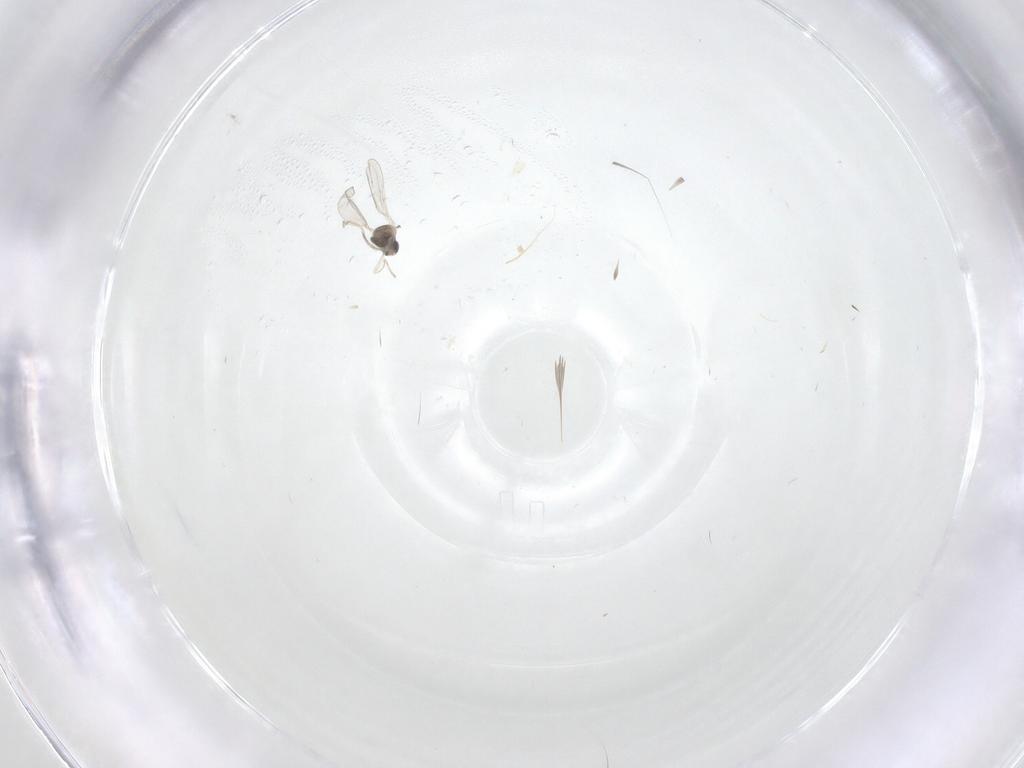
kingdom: Animalia
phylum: Arthropoda
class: Insecta
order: Diptera
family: Cecidomyiidae
